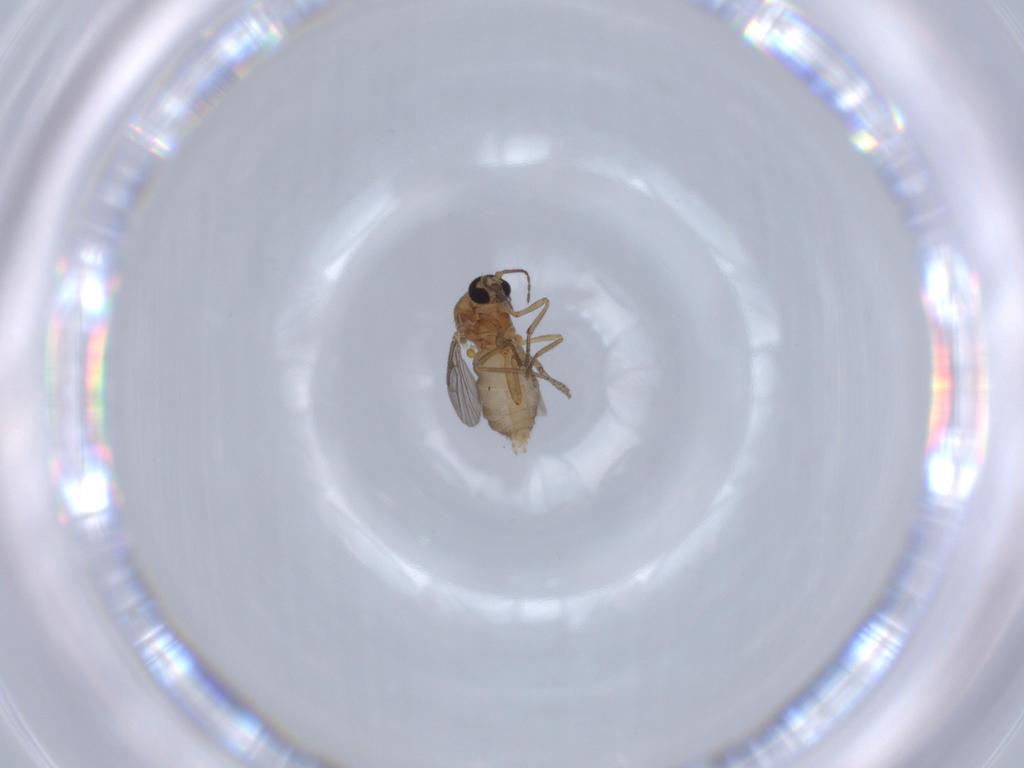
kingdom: Animalia
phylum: Arthropoda
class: Insecta
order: Diptera
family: Ceratopogonidae
